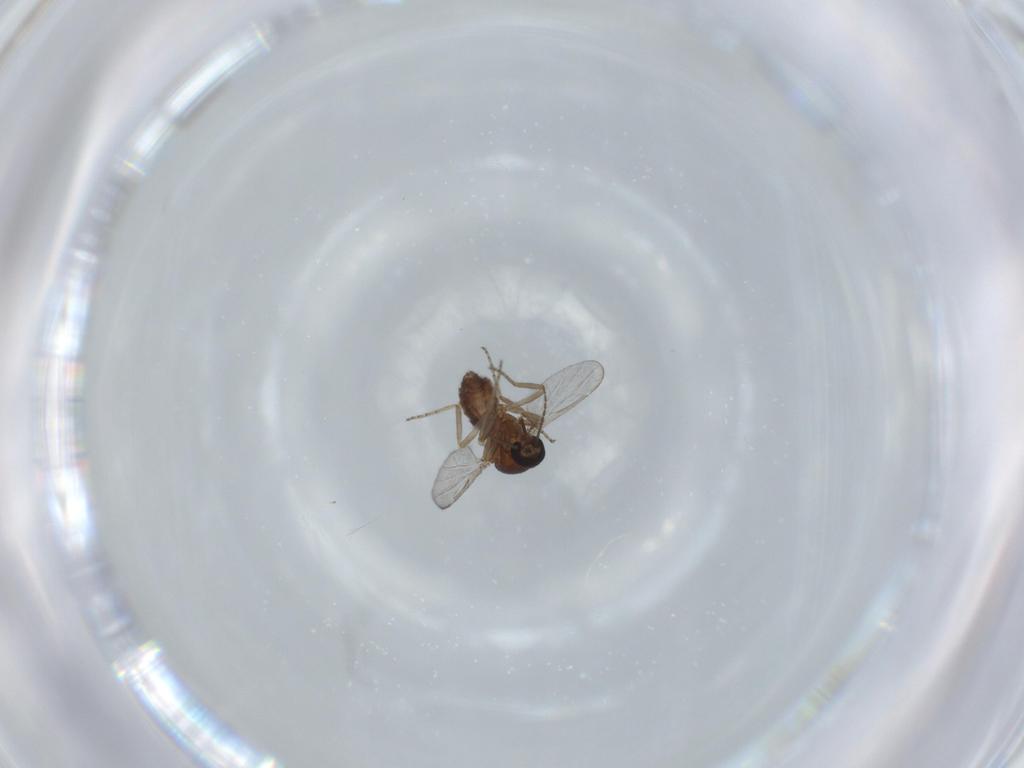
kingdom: Animalia
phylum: Arthropoda
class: Insecta
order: Diptera
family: Ceratopogonidae
